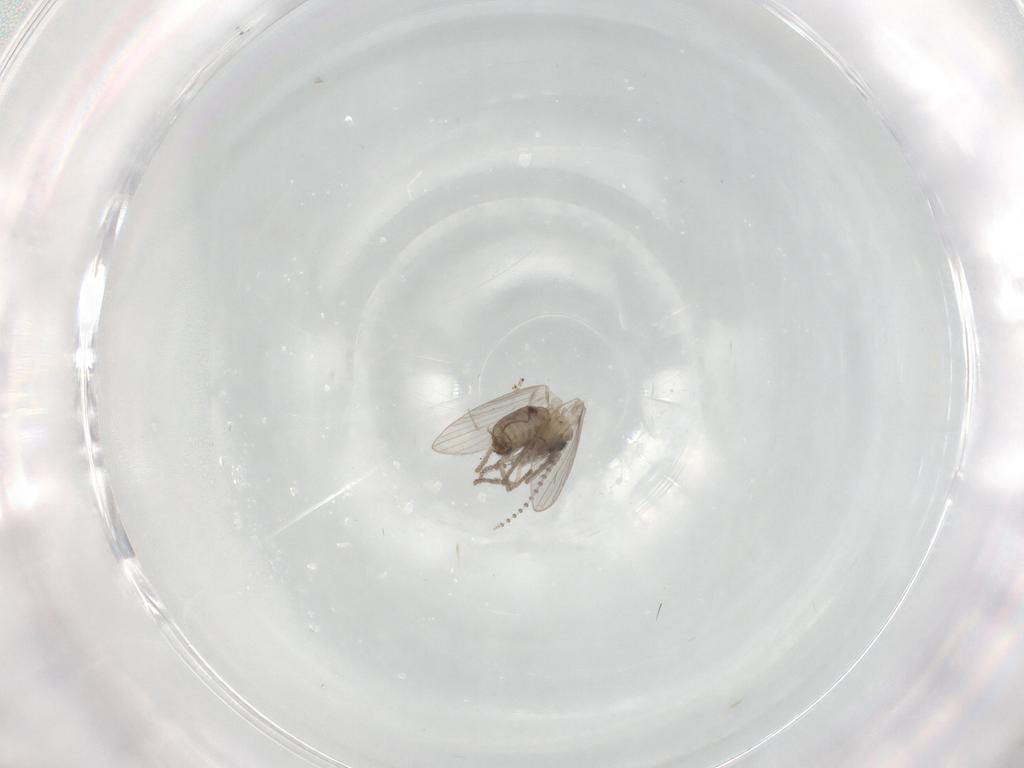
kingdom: Animalia
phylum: Arthropoda
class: Insecta
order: Diptera
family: Psychodidae
